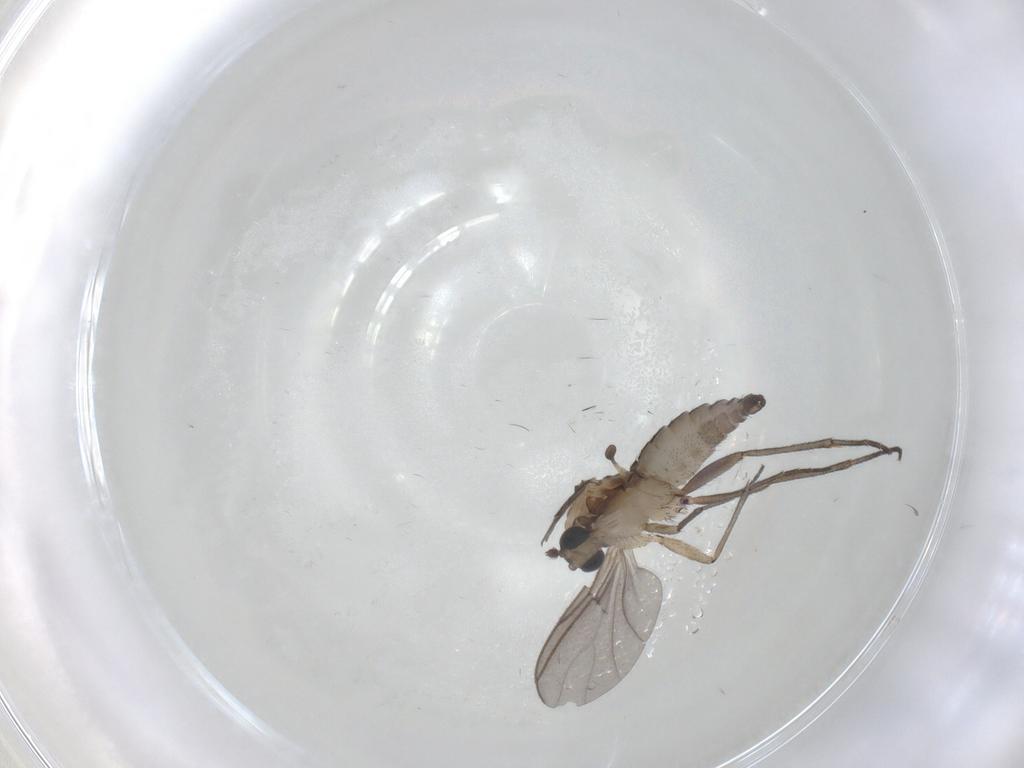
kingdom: Animalia
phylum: Arthropoda
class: Insecta
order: Diptera
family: Sciaridae
